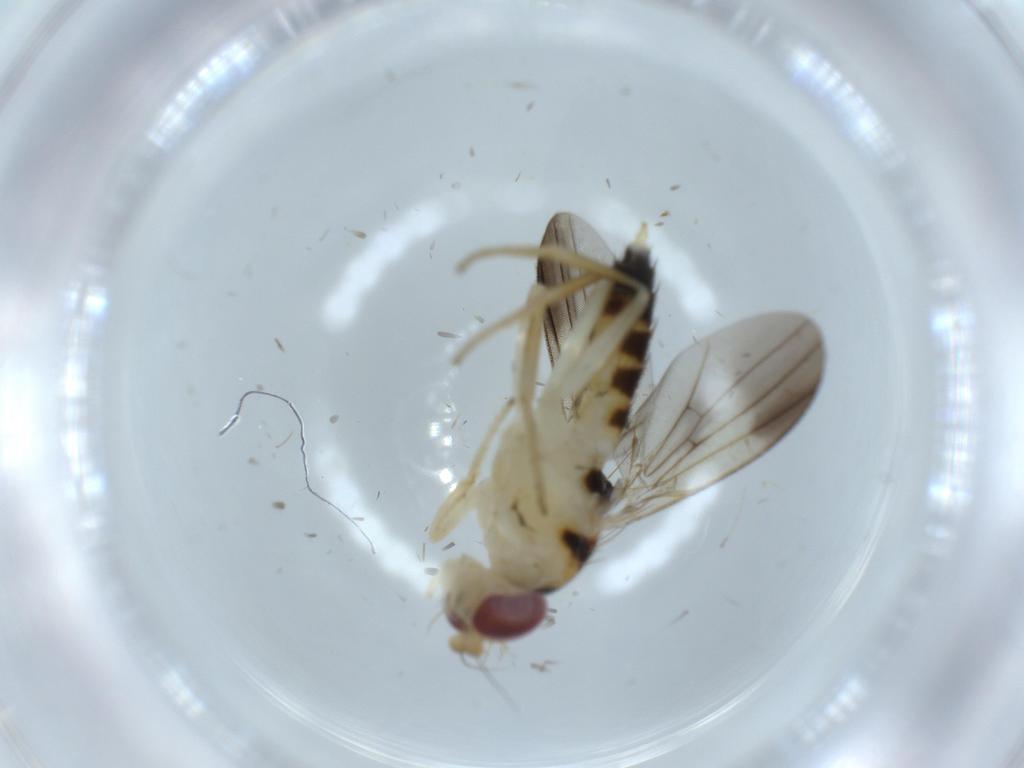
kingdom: Animalia
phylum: Arthropoda
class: Insecta
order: Diptera
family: Clusiidae
